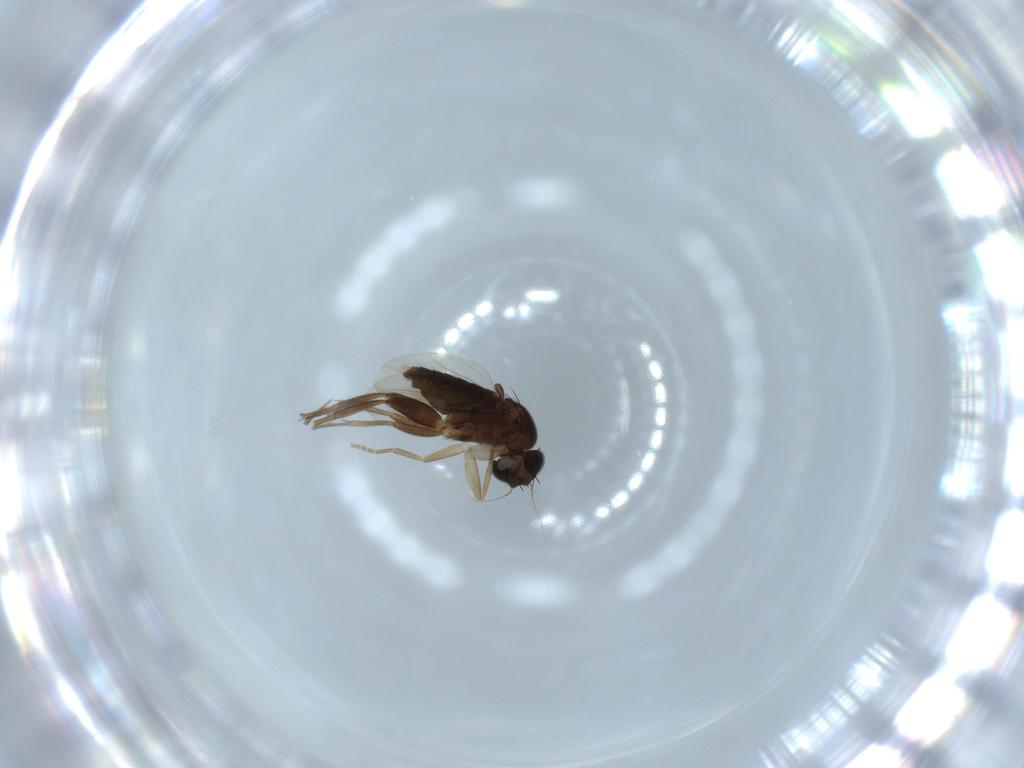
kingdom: Animalia
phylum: Arthropoda
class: Insecta
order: Diptera
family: Phoridae
